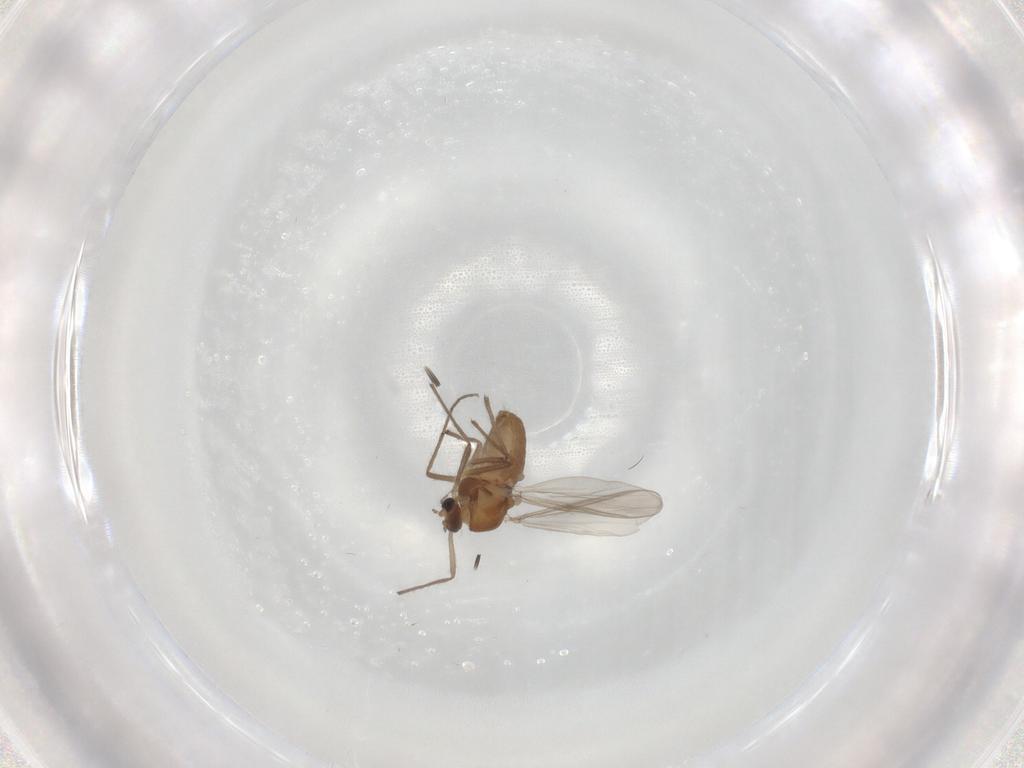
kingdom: Animalia
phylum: Arthropoda
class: Insecta
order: Diptera
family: Chironomidae
